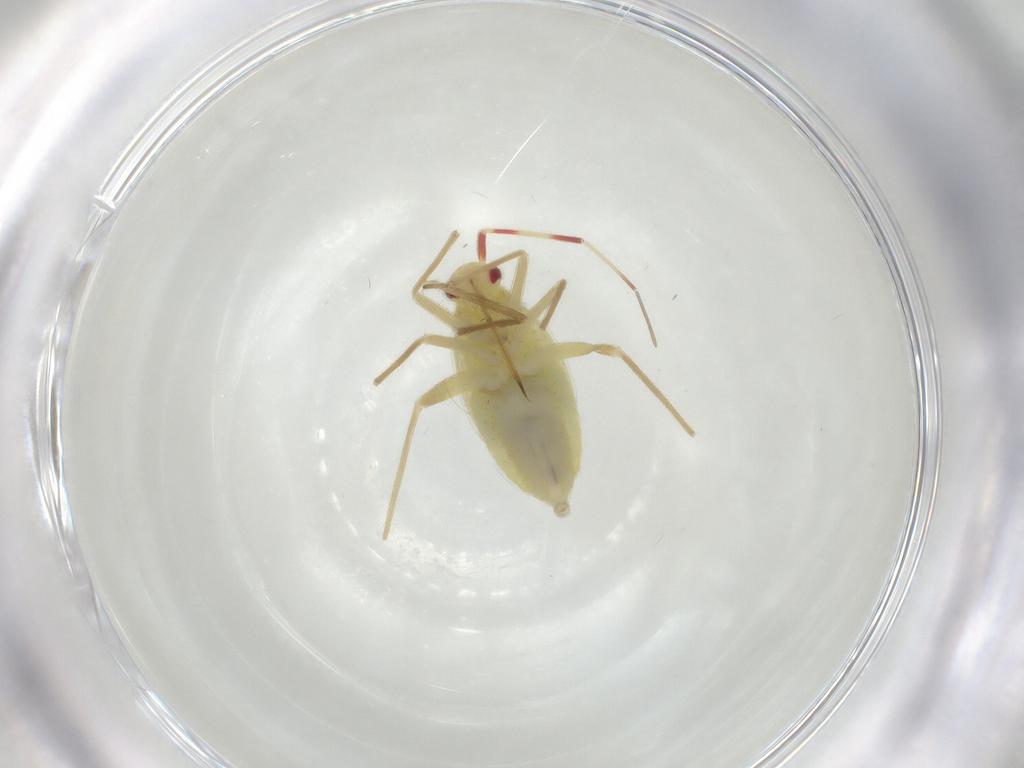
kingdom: Animalia
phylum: Arthropoda
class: Insecta
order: Hemiptera
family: Miridae
